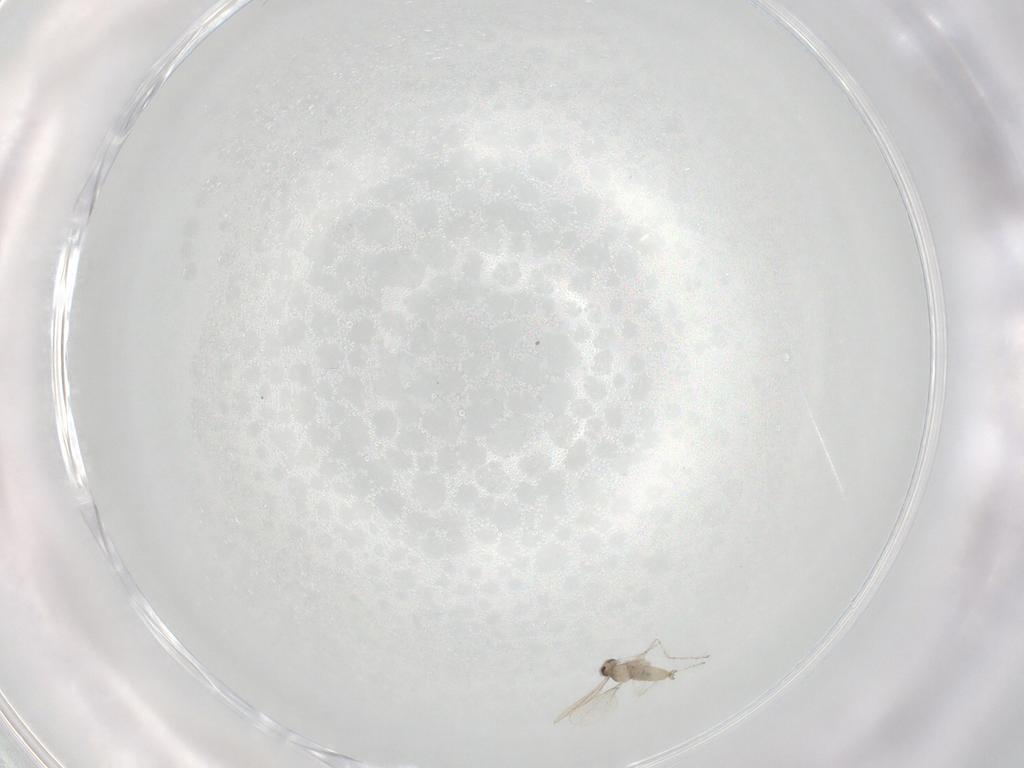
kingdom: Animalia
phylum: Arthropoda
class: Insecta
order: Diptera
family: Cecidomyiidae
